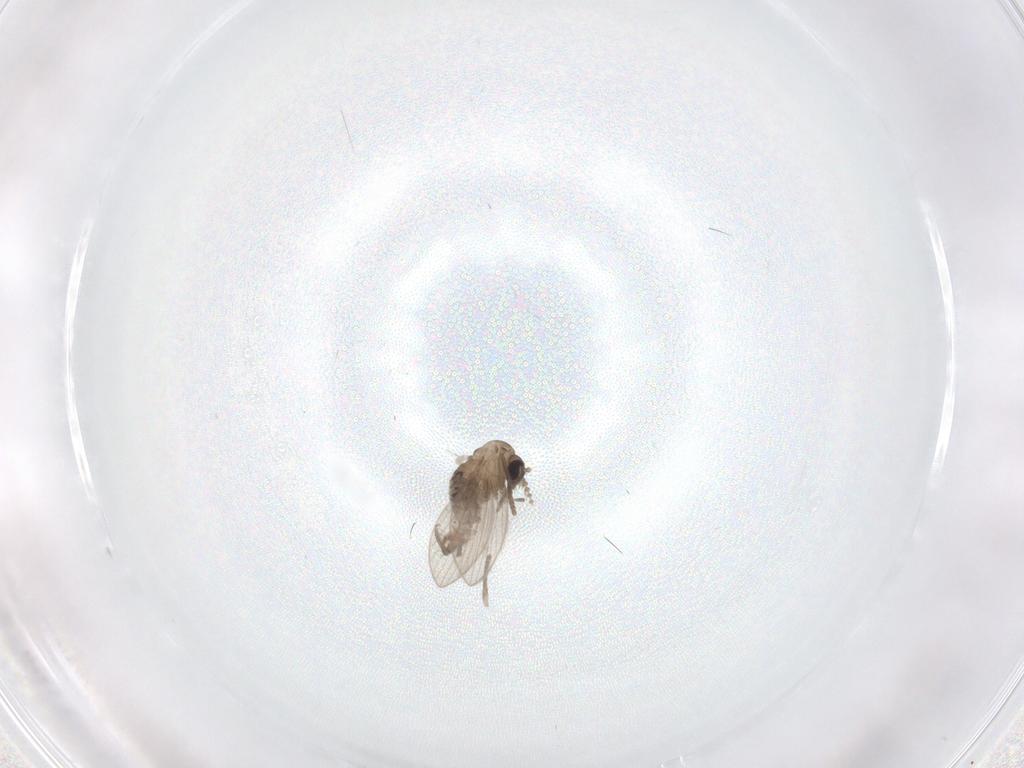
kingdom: Animalia
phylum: Arthropoda
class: Insecta
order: Diptera
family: Psychodidae
